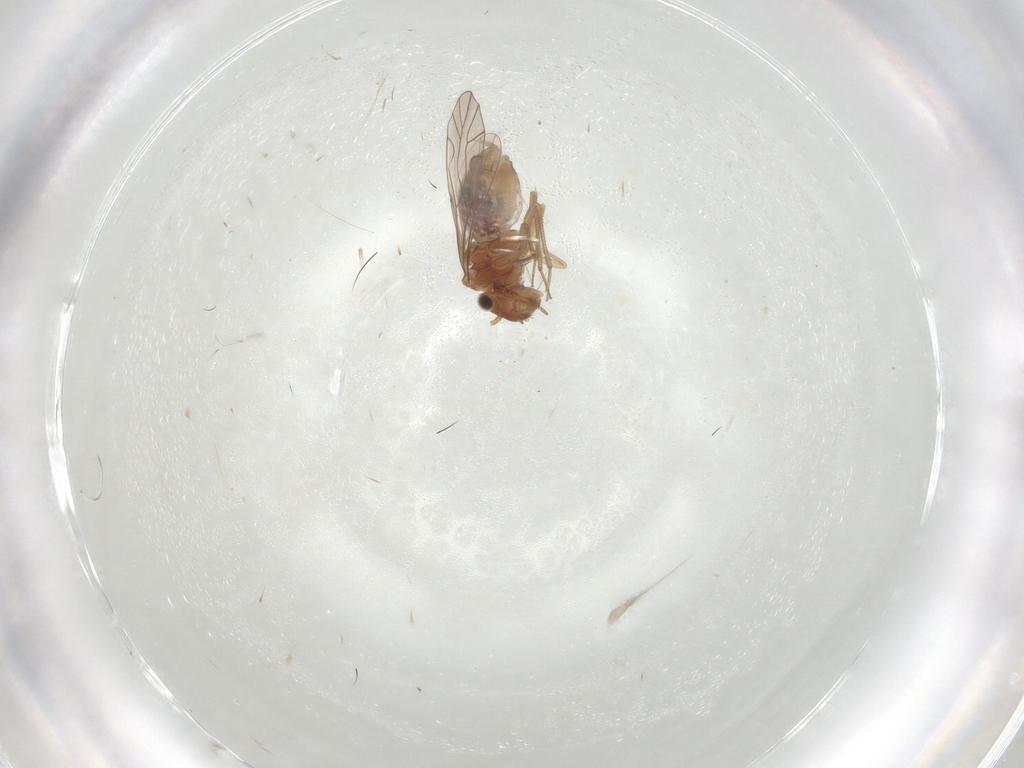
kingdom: Animalia
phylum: Arthropoda
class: Insecta
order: Psocodea
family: Lachesillidae
